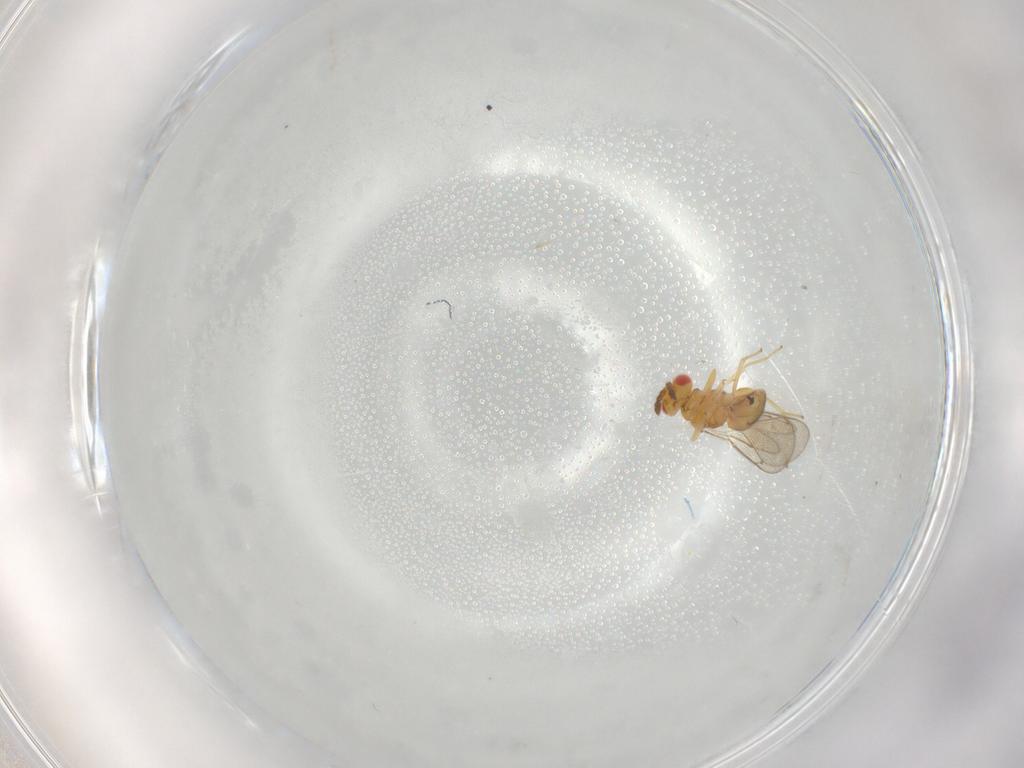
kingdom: Animalia
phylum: Arthropoda
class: Insecta
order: Hymenoptera
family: Eulophidae
